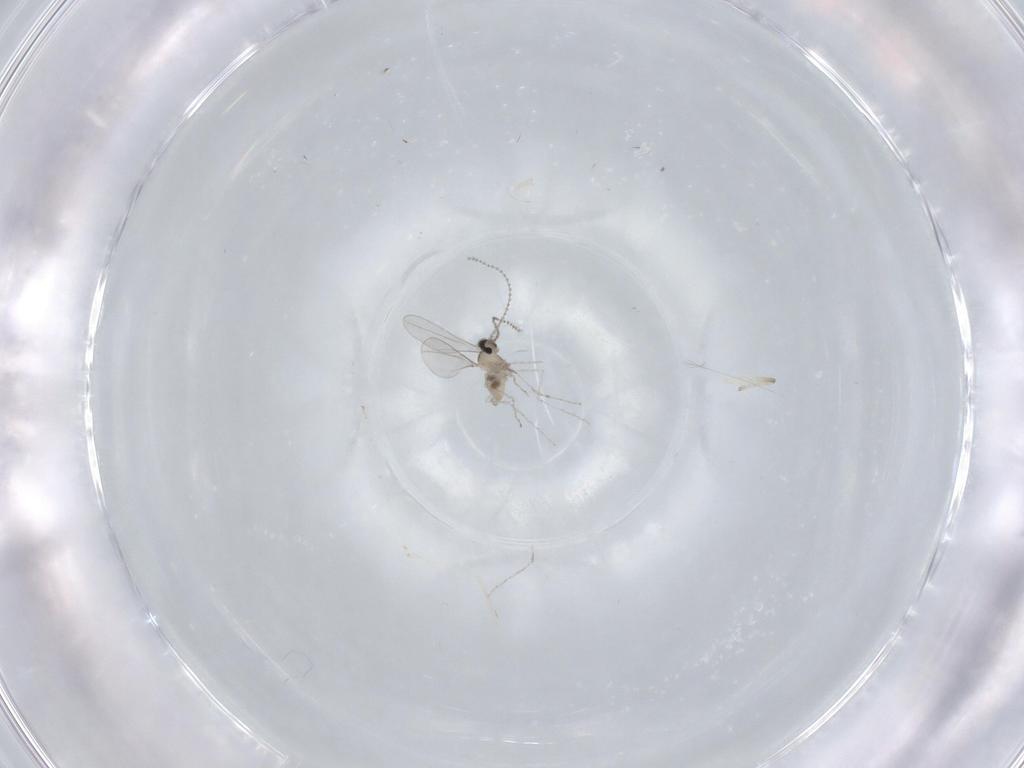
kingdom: Animalia
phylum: Arthropoda
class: Insecta
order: Diptera
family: Cecidomyiidae
